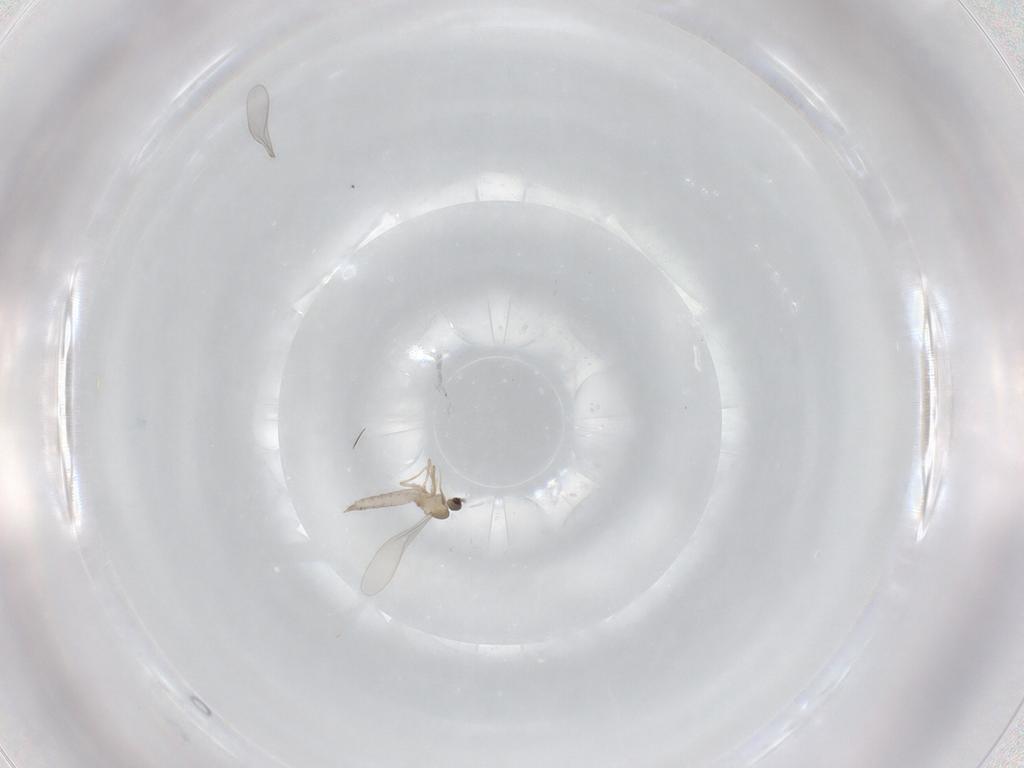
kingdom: Animalia
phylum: Arthropoda
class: Insecta
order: Diptera
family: Cecidomyiidae
